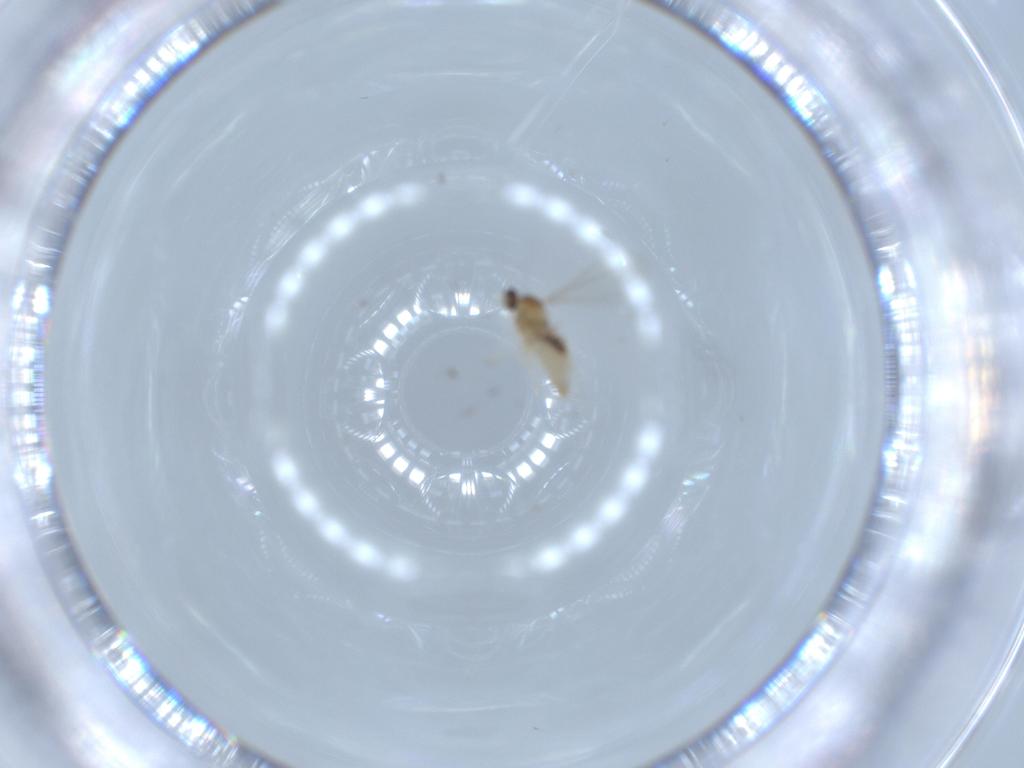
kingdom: Animalia
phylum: Arthropoda
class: Insecta
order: Diptera
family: Cecidomyiidae
